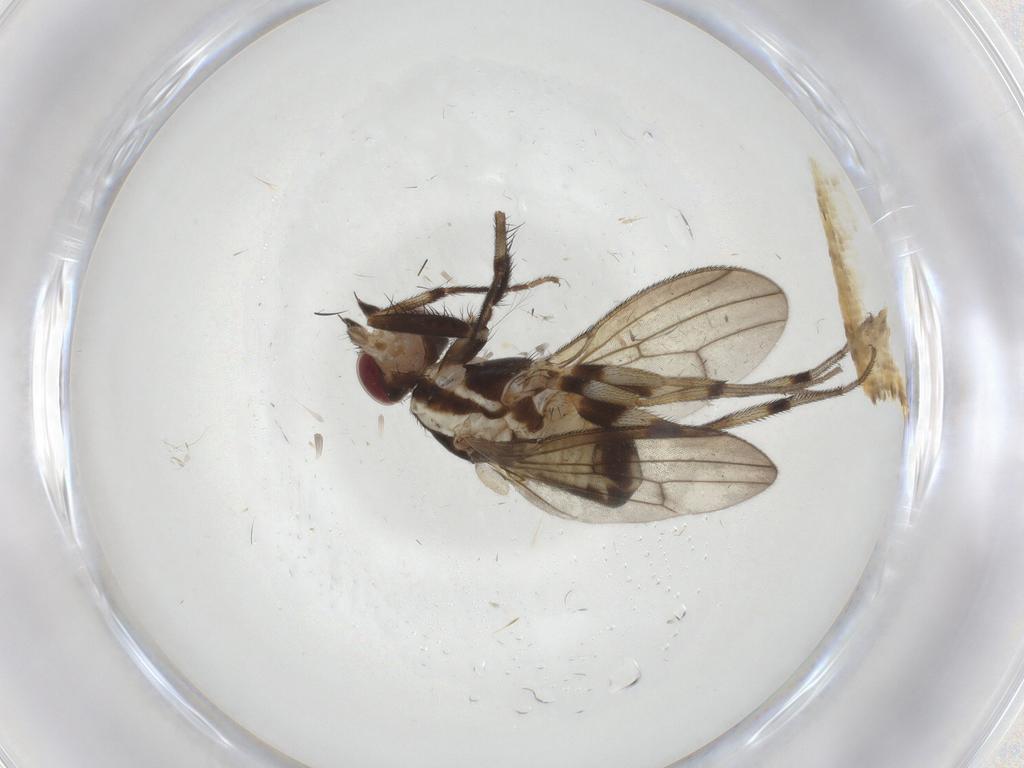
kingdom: Animalia
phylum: Arthropoda
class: Insecta
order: Diptera
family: Pseudopomyzidae
